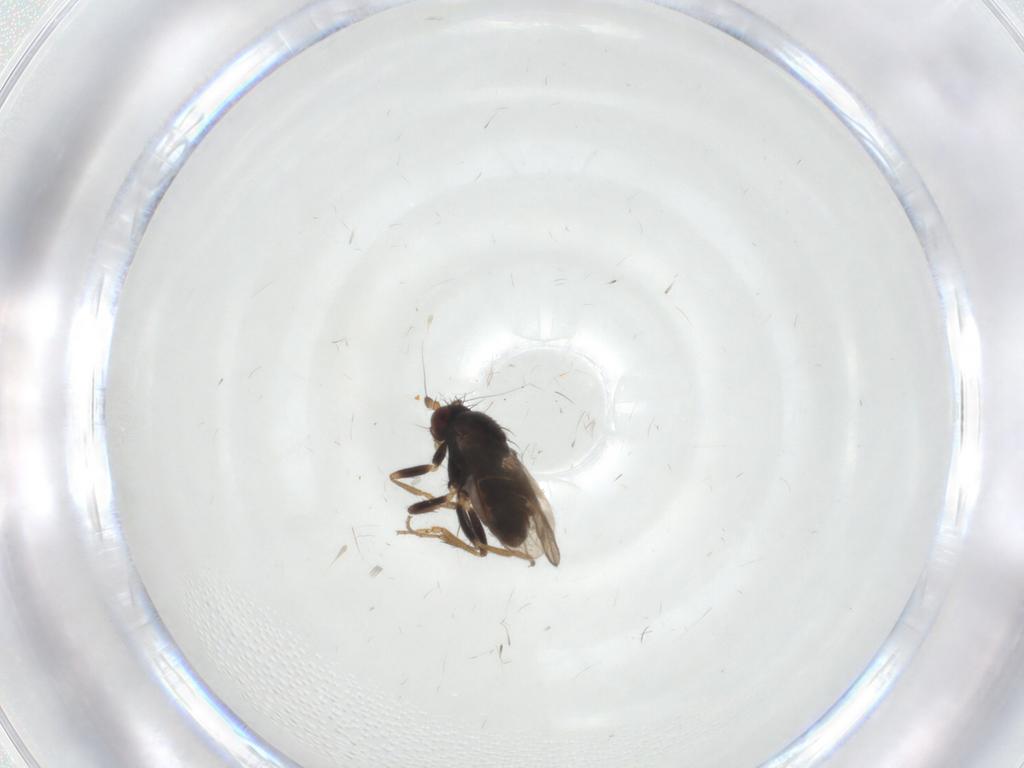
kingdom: Animalia
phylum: Arthropoda
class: Insecta
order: Diptera
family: Sphaeroceridae
